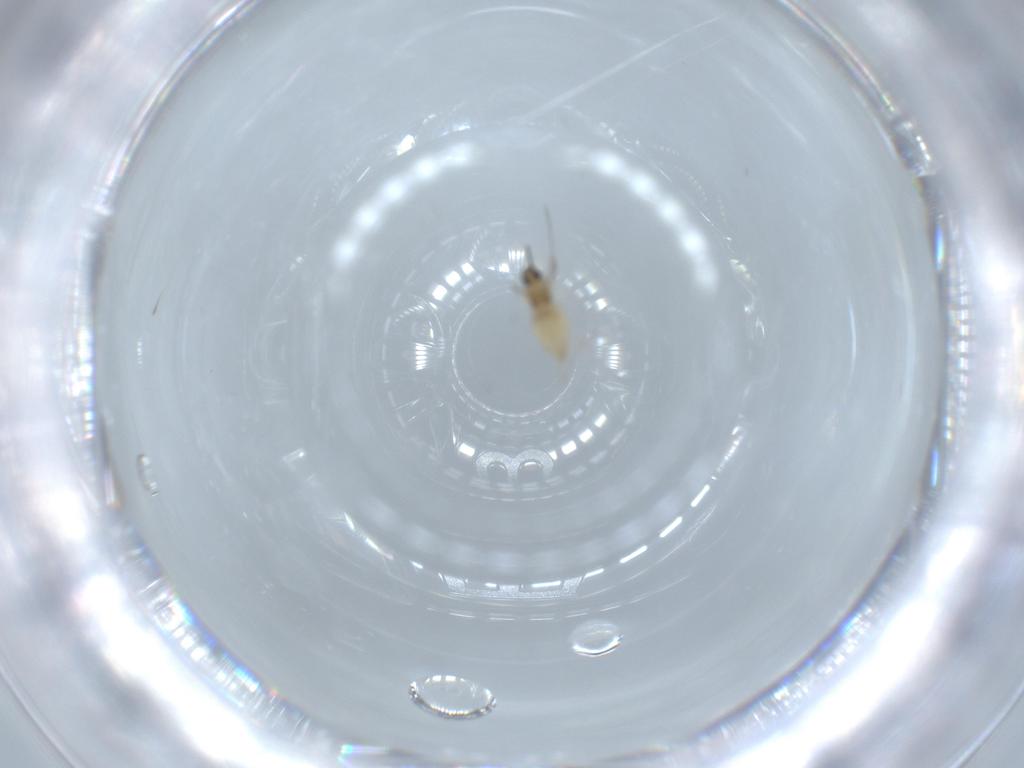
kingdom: Animalia
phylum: Arthropoda
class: Insecta
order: Diptera
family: Cecidomyiidae
